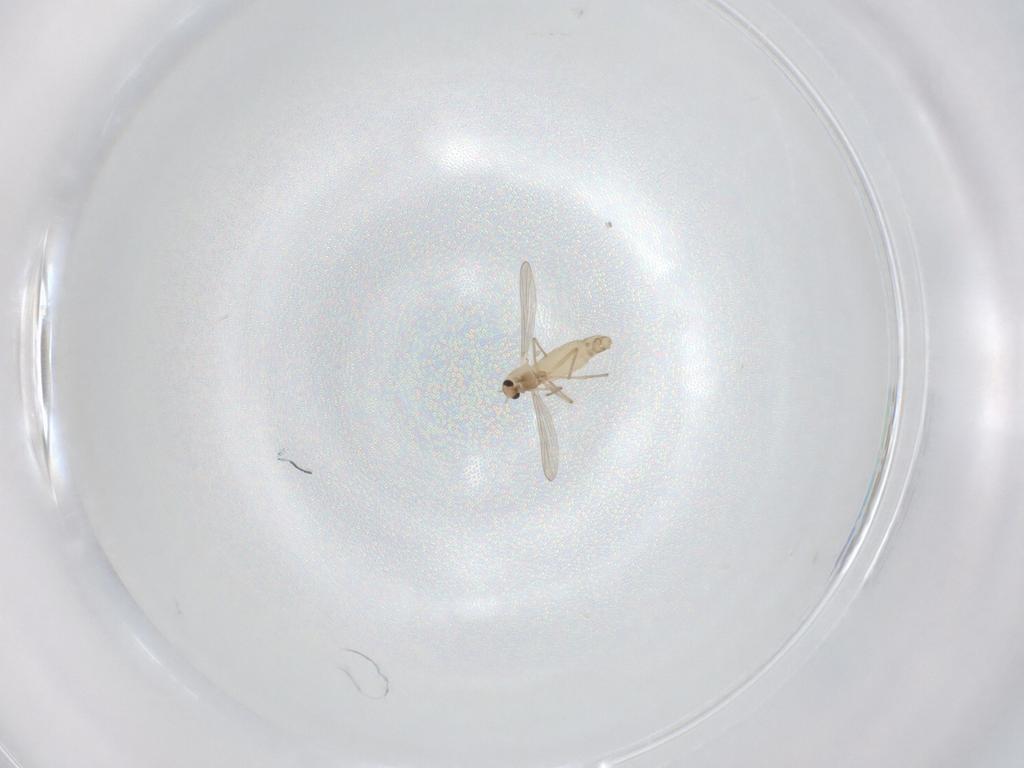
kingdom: Animalia
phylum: Arthropoda
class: Insecta
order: Diptera
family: Chironomidae
